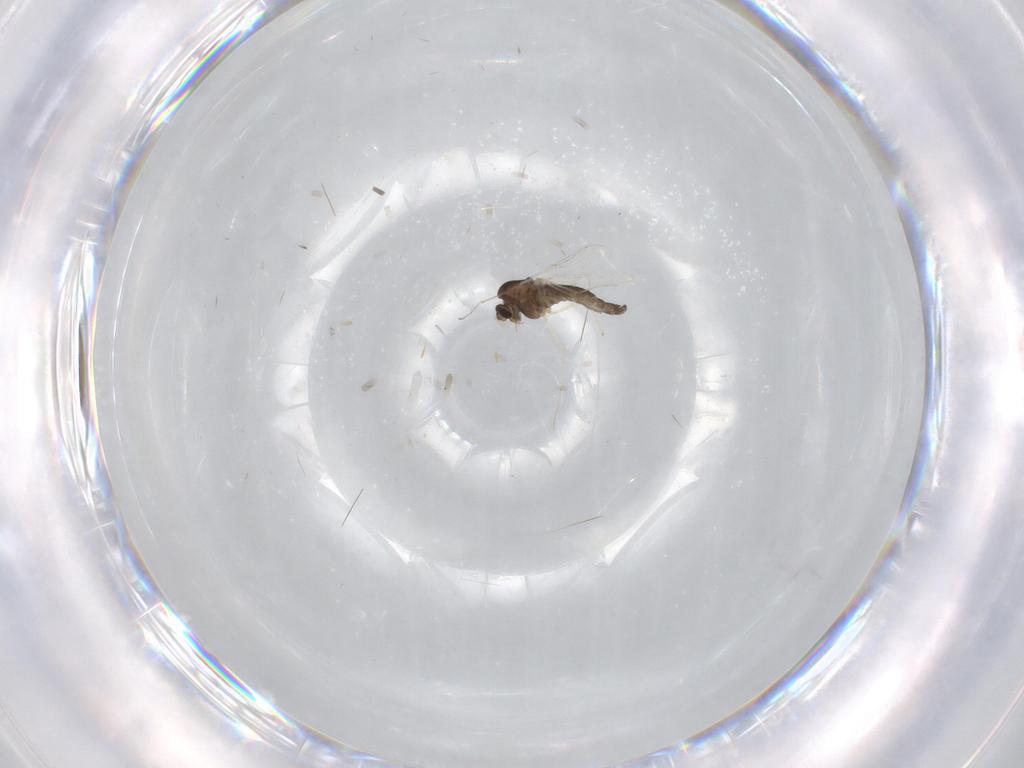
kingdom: Animalia
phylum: Arthropoda
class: Insecta
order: Diptera
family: Chironomidae
